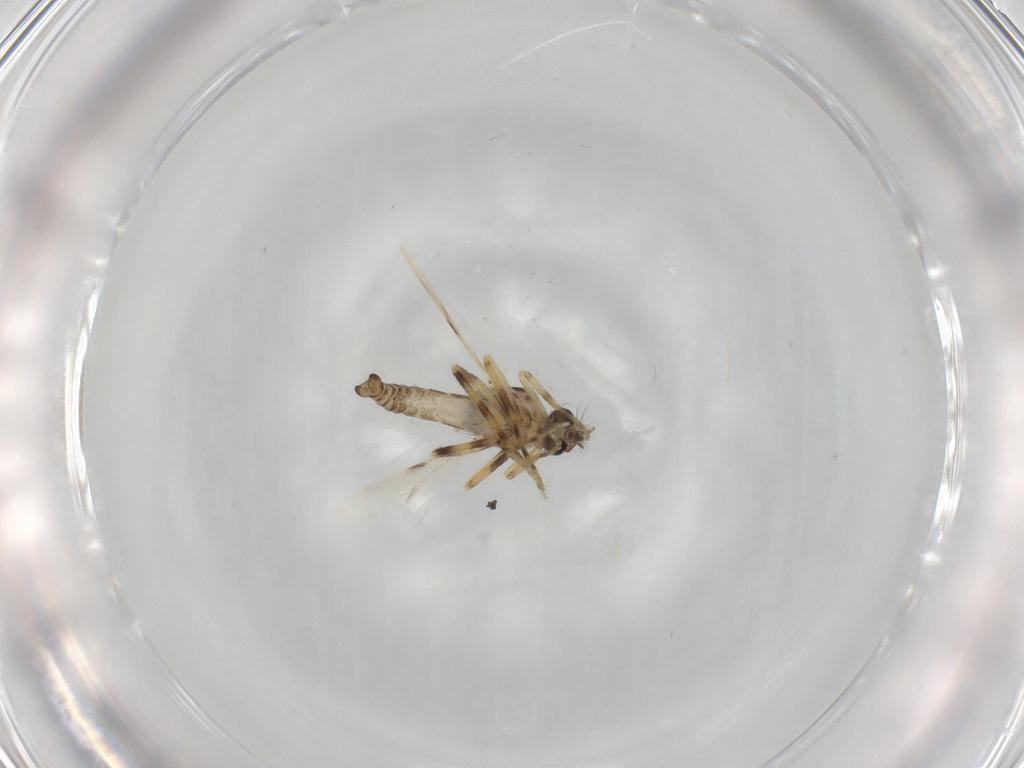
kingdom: Animalia
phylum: Arthropoda
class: Insecta
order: Diptera
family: Ceratopogonidae
